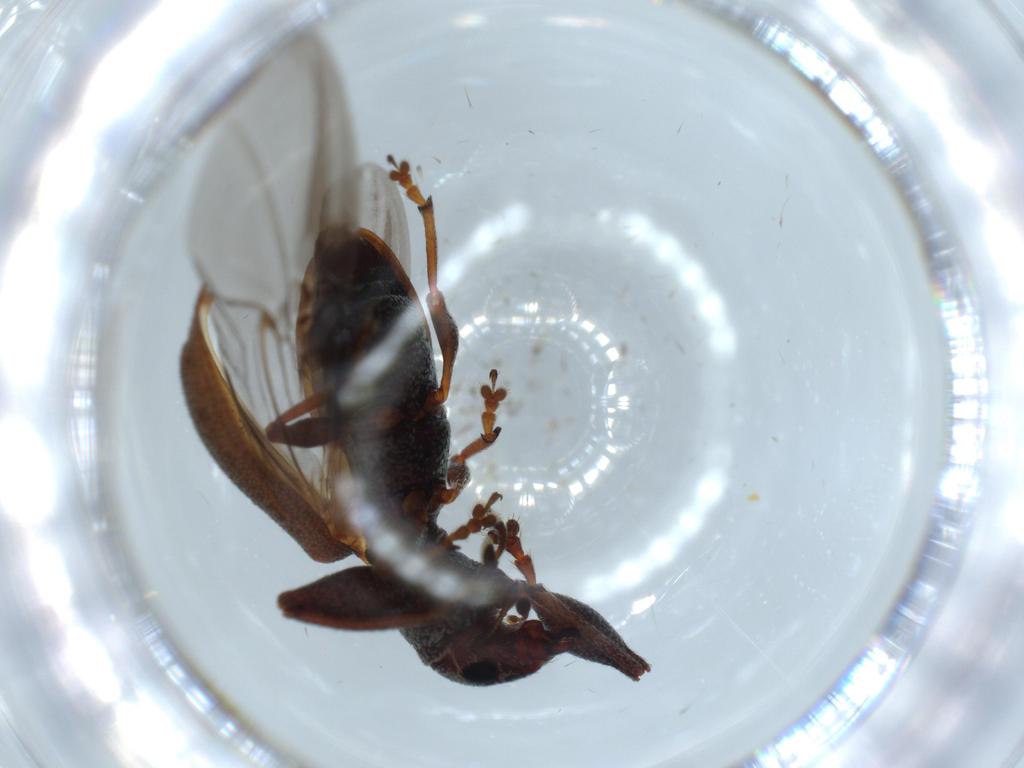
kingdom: Animalia
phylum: Arthropoda
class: Insecta
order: Coleoptera
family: Curculionidae
